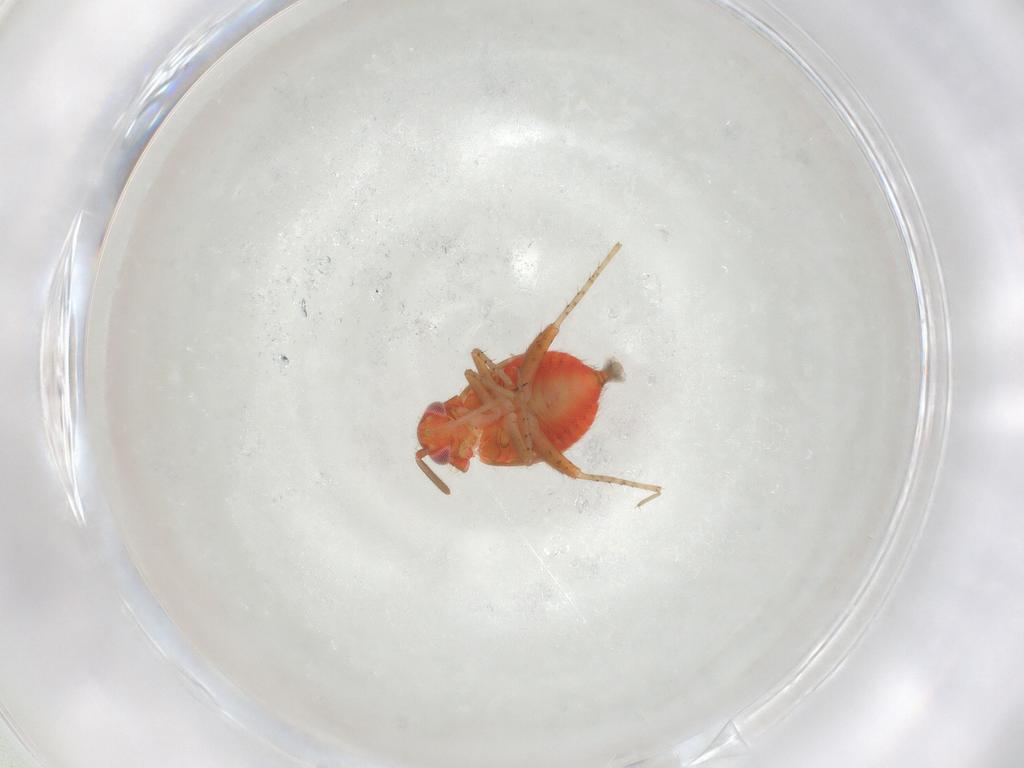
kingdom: Animalia
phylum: Arthropoda
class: Insecta
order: Hemiptera
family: Miridae
